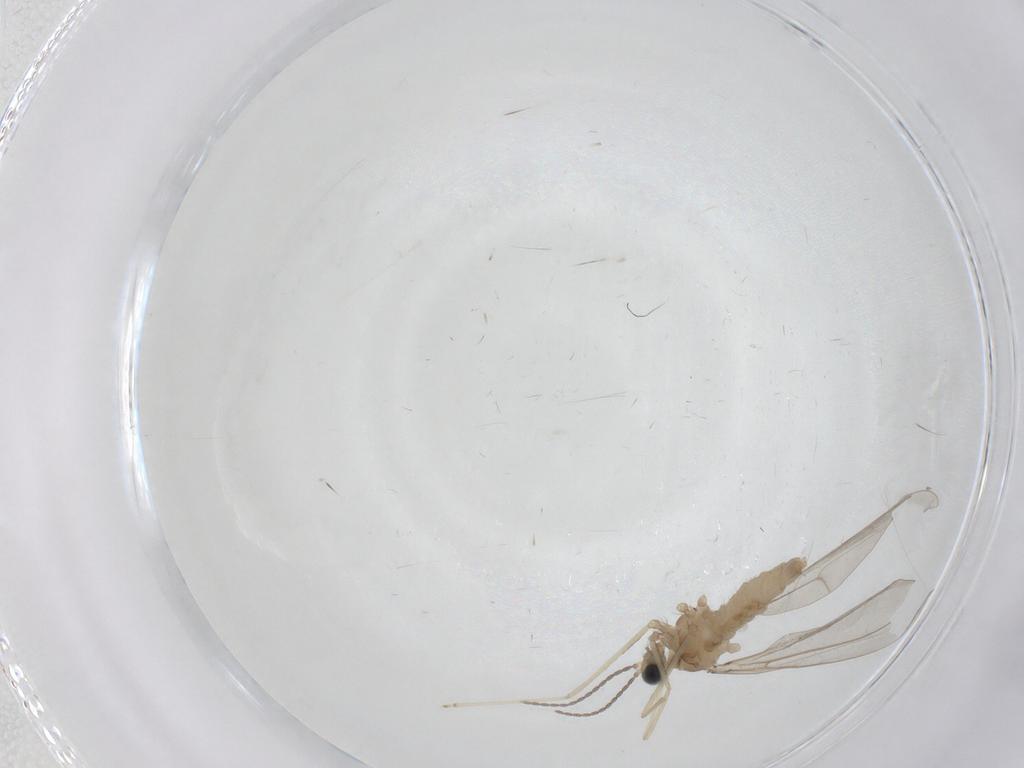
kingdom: Animalia
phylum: Arthropoda
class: Insecta
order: Diptera
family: Cecidomyiidae
